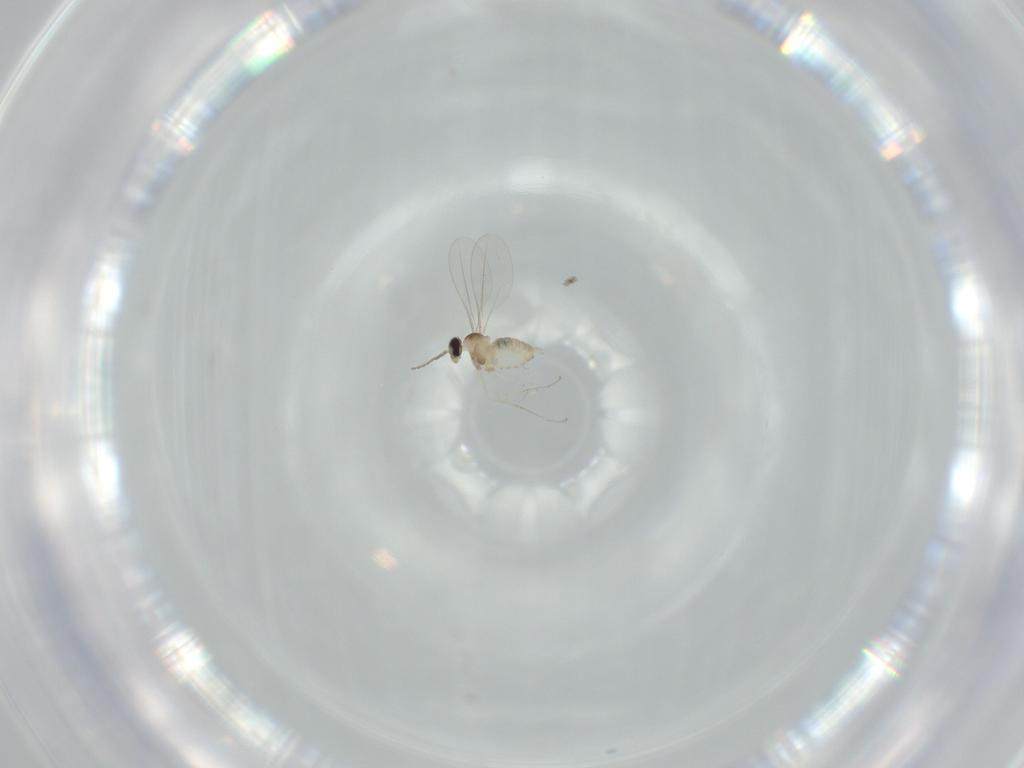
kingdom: Animalia
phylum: Arthropoda
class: Insecta
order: Diptera
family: Cecidomyiidae
